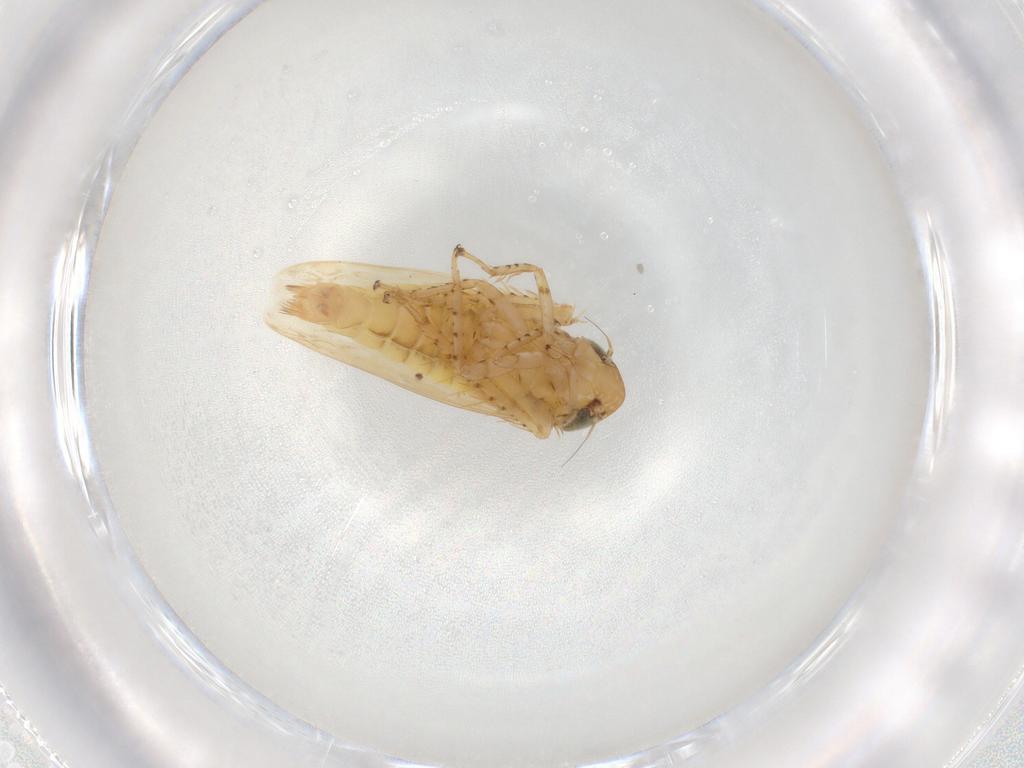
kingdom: Animalia
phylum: Arthropoda
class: Insecta
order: Hemiptera
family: Cicadellidae
